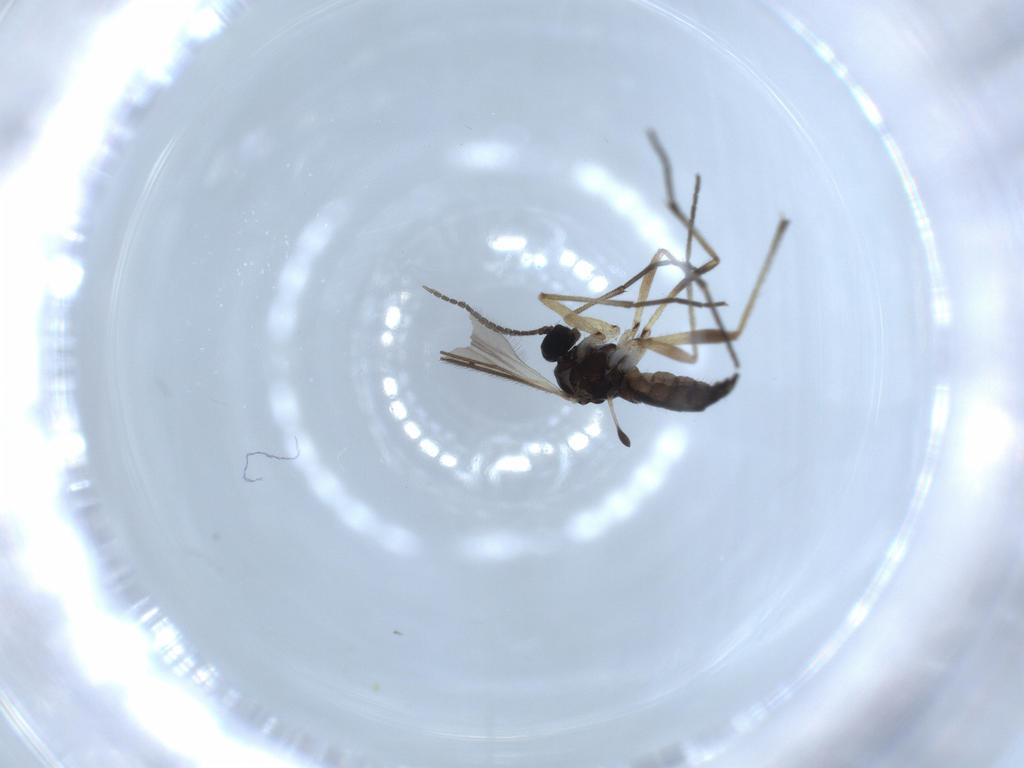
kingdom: Animalia
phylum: Arthropoda
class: Insecta
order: Diptera
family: Sciaridae
